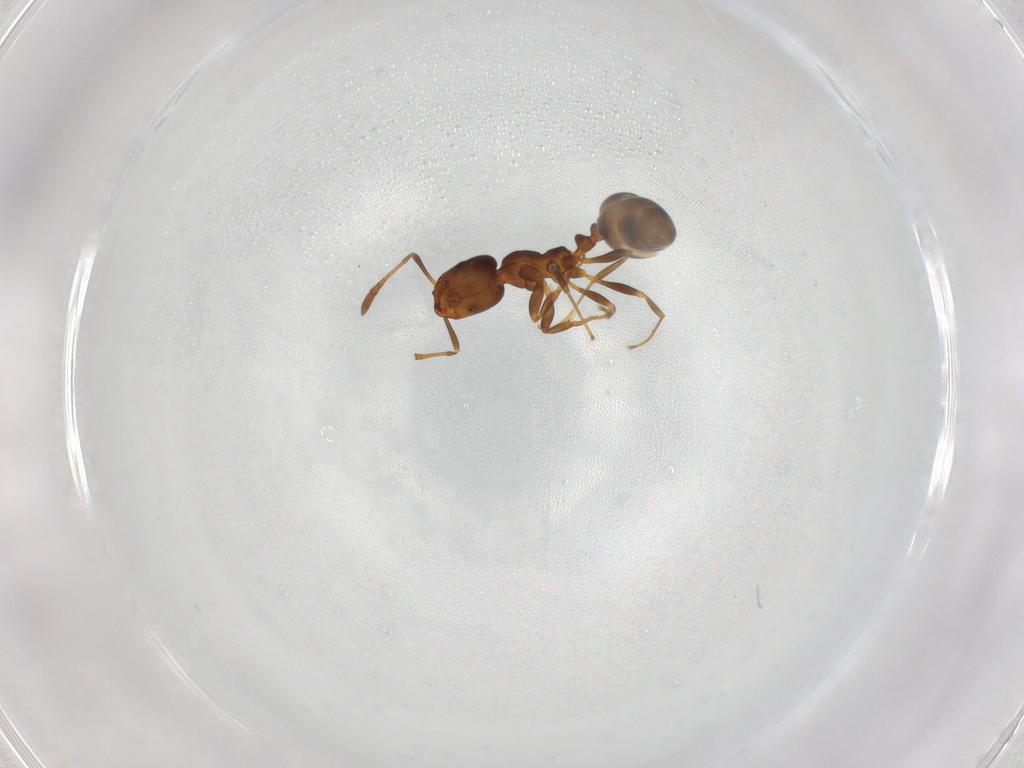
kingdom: Animalia
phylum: Arthropoda
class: Insecta
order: Hymenoptera
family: Formicidae
